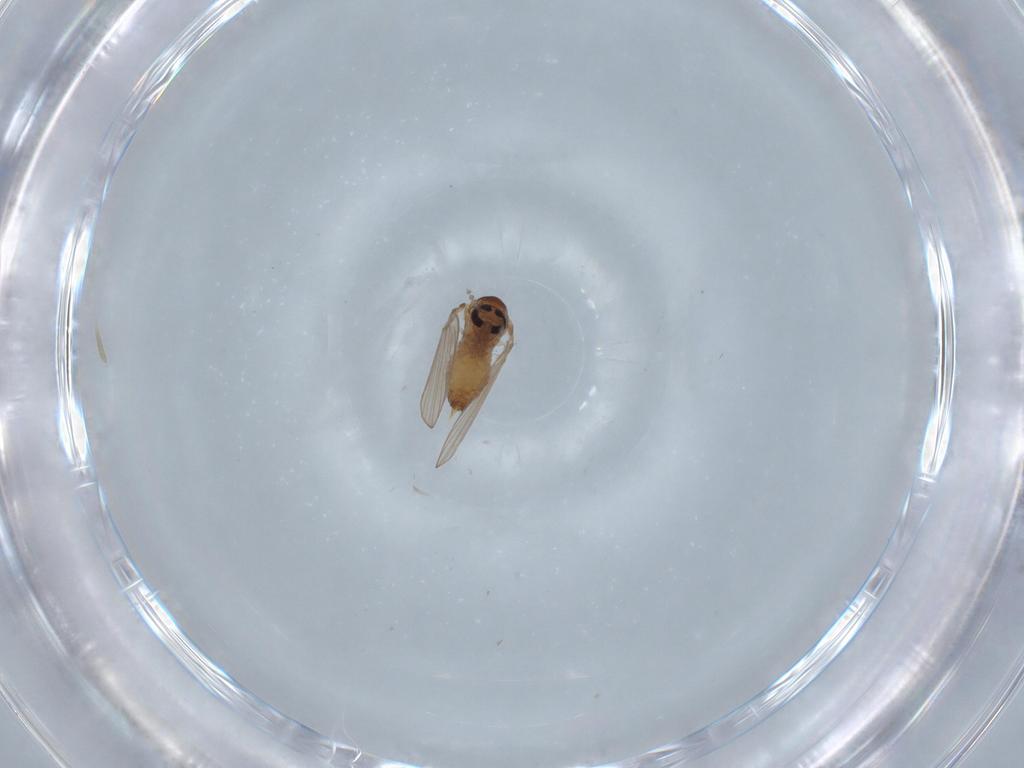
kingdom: Animalia
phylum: Arthropoda
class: Insecta
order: Diptera
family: Psychodidae
